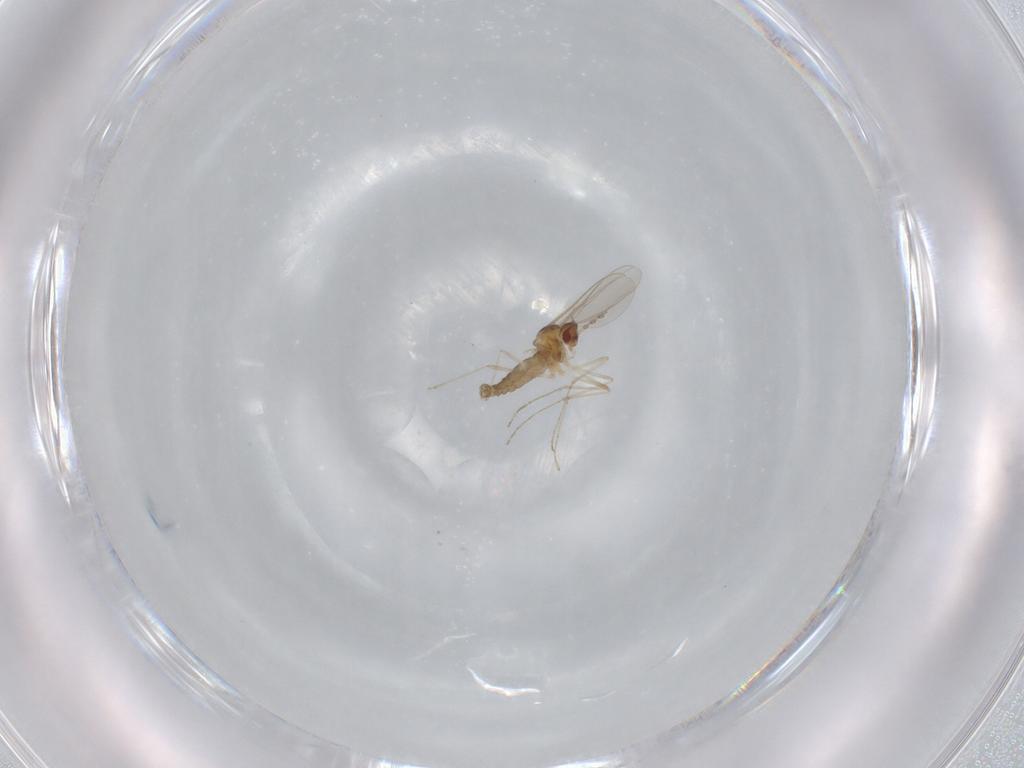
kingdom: Animalia
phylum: Arthropoda
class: Insecta
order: Diptera
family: Cecidomyiidae
